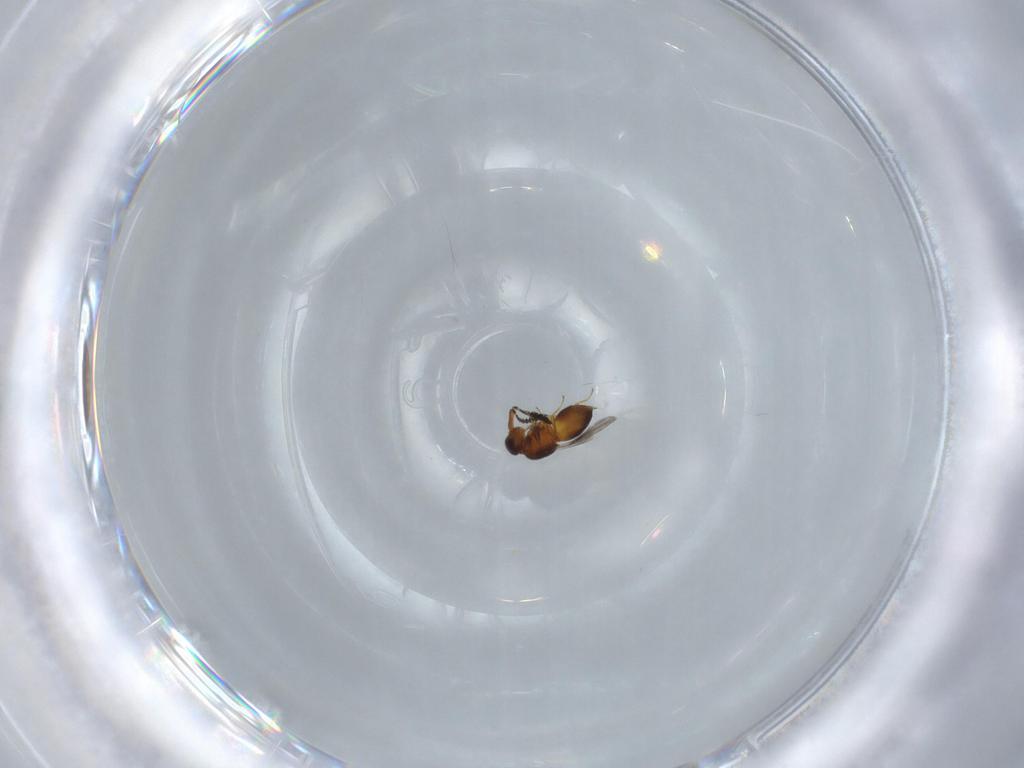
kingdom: Animalia
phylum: Arthropoda
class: Insecta
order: Hymenoptera
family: Ceraphronidae
